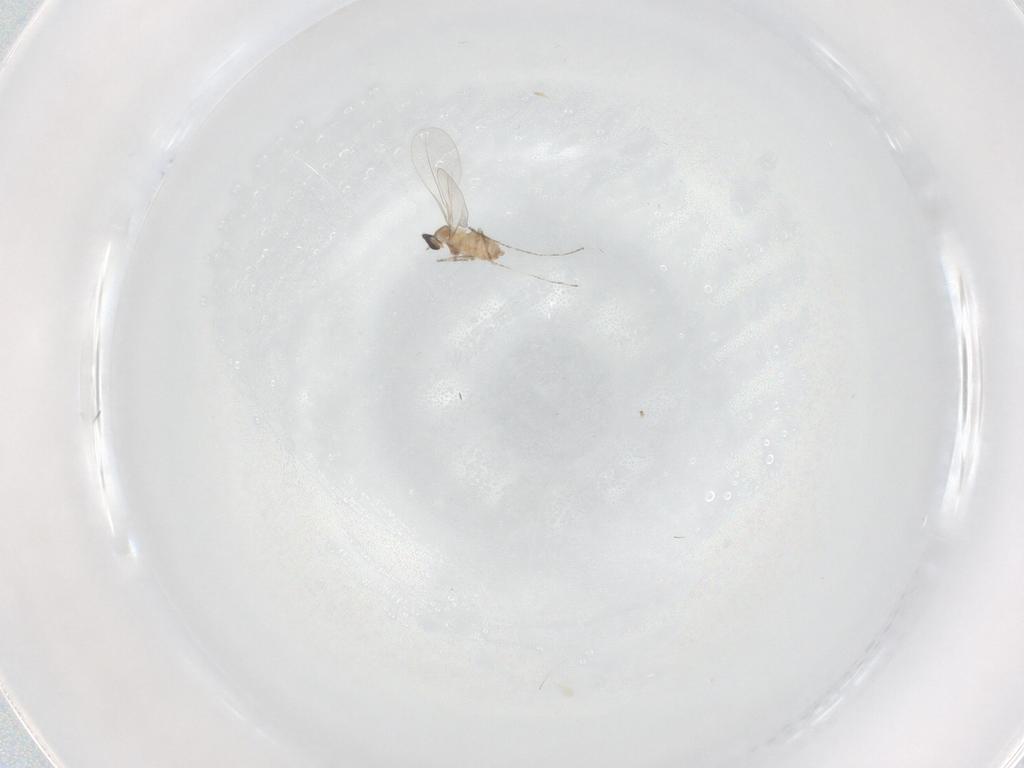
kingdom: Animalia
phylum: Arthropoda
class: Insecta
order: Diptera
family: Cecidomyiidae
